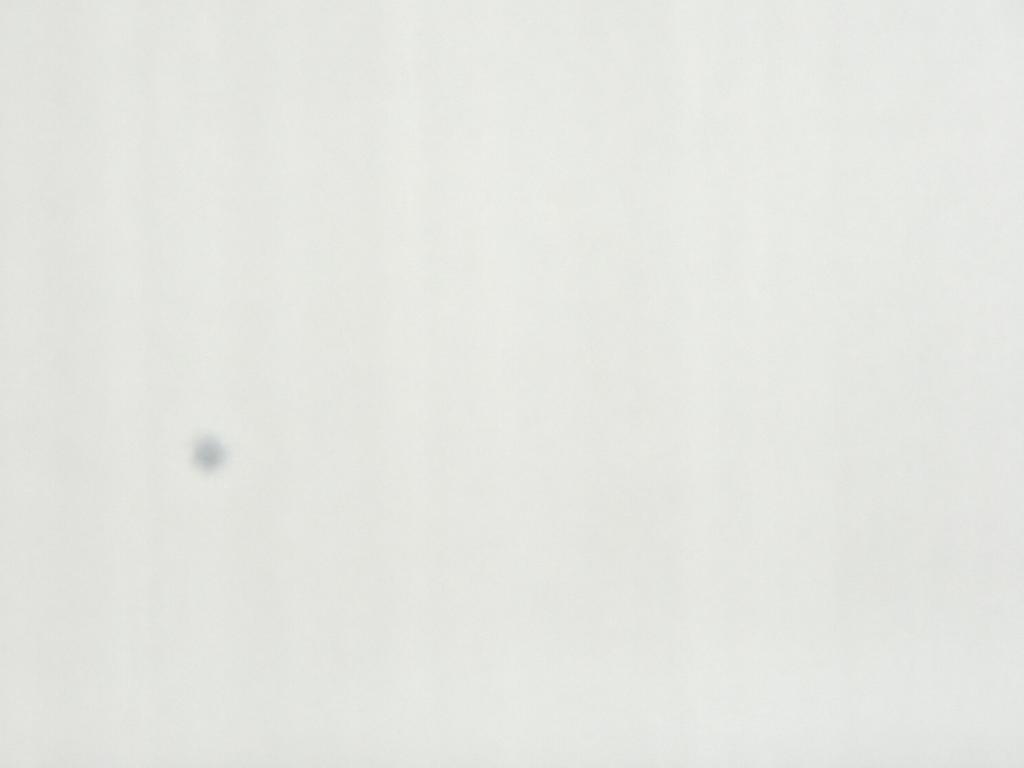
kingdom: Animalia
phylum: Arthropoda
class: Insecta
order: Diptera
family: Sciaridae
